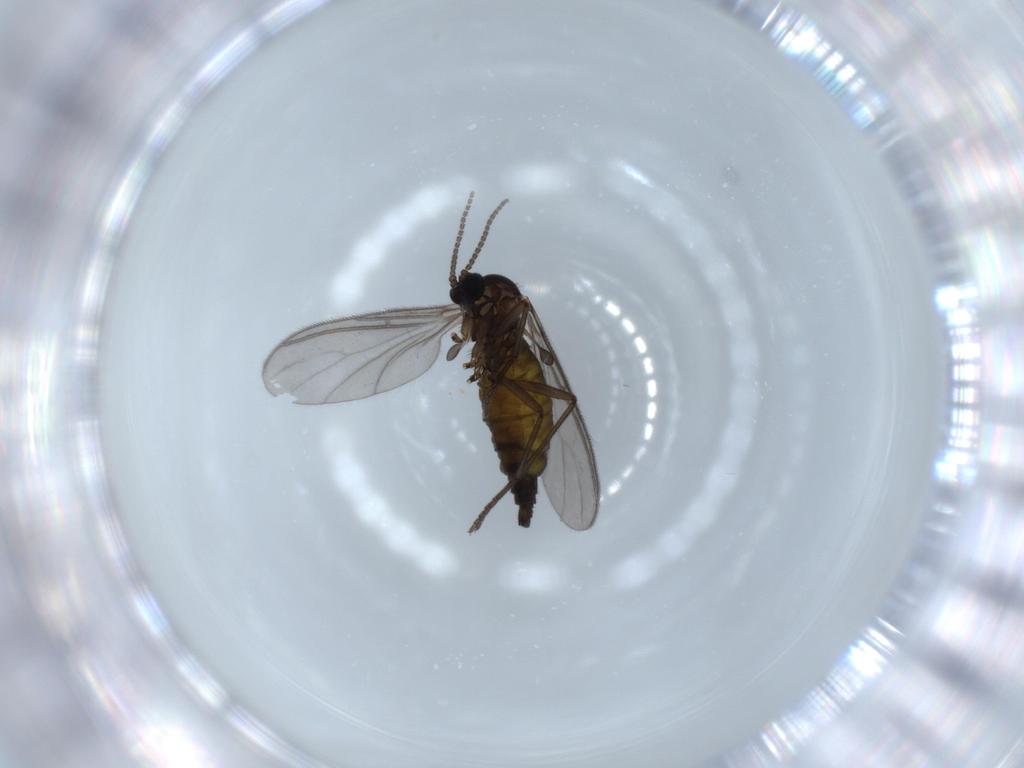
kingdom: Animalia
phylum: Arthropoda
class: Insecta
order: Diptera
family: Sciaridae
